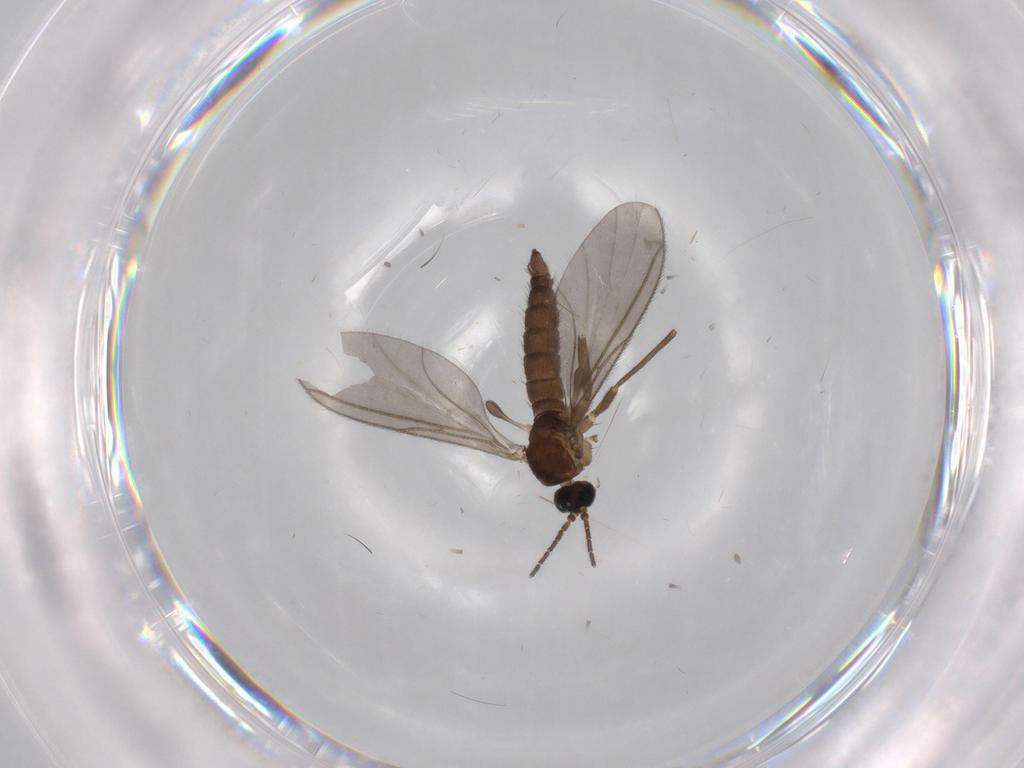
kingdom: Animalia
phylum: Arthropoda
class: Insecta
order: Diptera
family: Sciaridae
